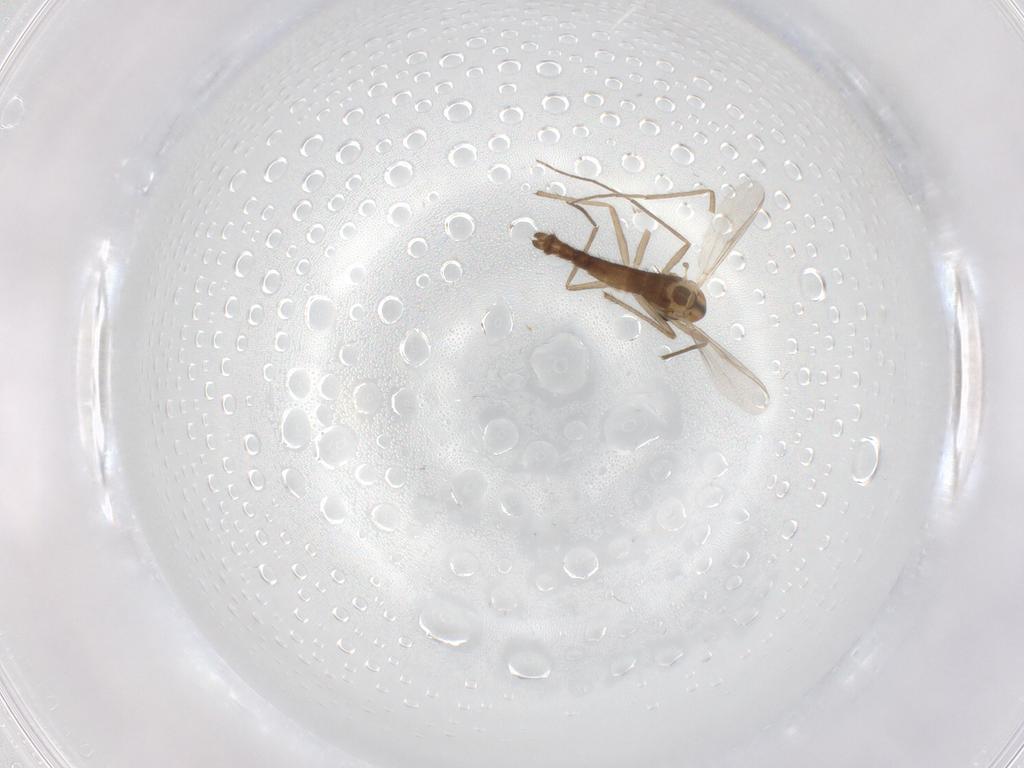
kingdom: Animalia
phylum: Arthropoda
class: Insecta
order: Diptera
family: Chironomidae
